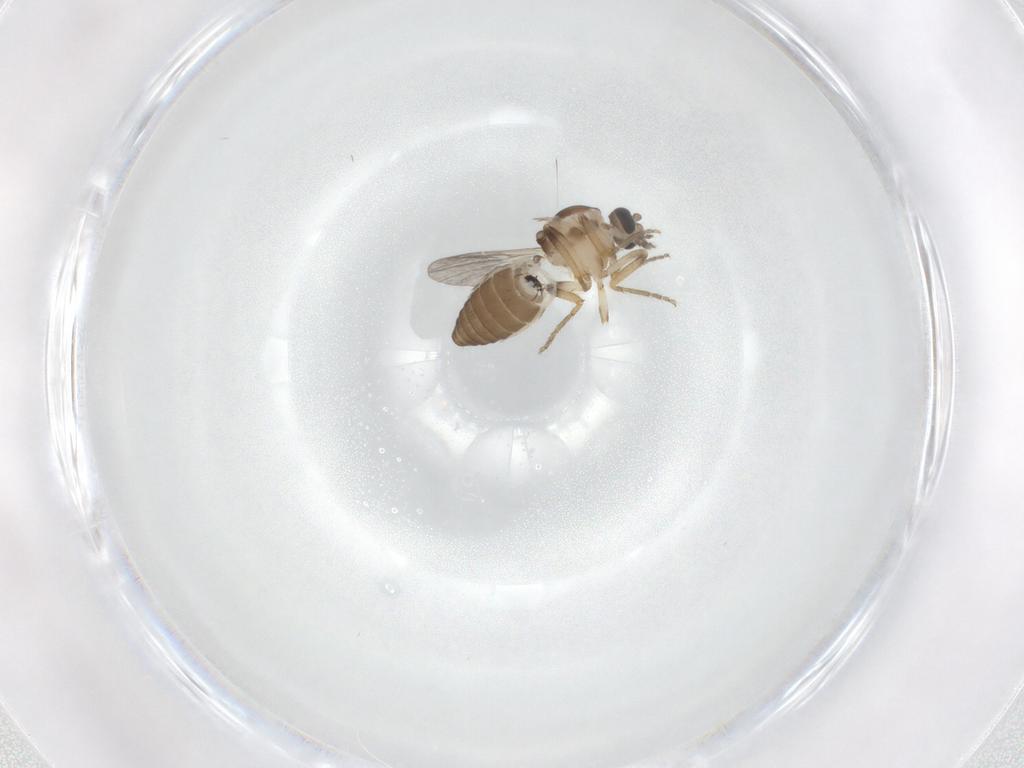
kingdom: Animalia
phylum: Arthropoda
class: Insecta
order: Diptera
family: Ceratopogonidae
